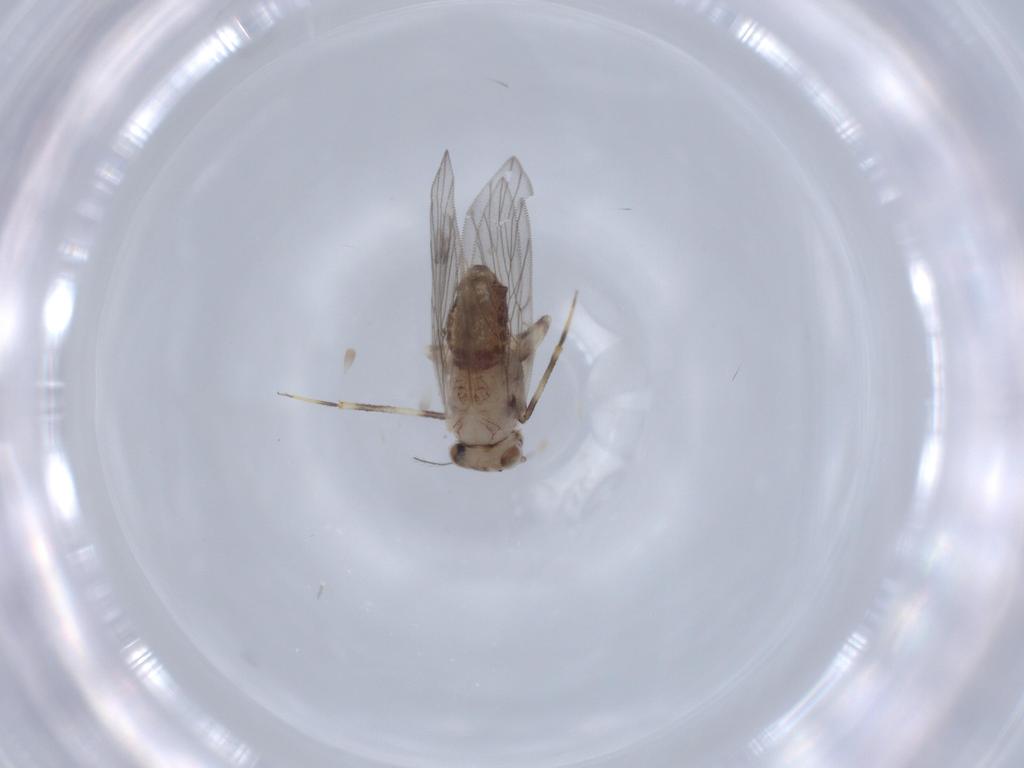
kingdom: Animalia
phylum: Arthropoda
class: Insecta
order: Psocodea
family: Lepidopsocidae
